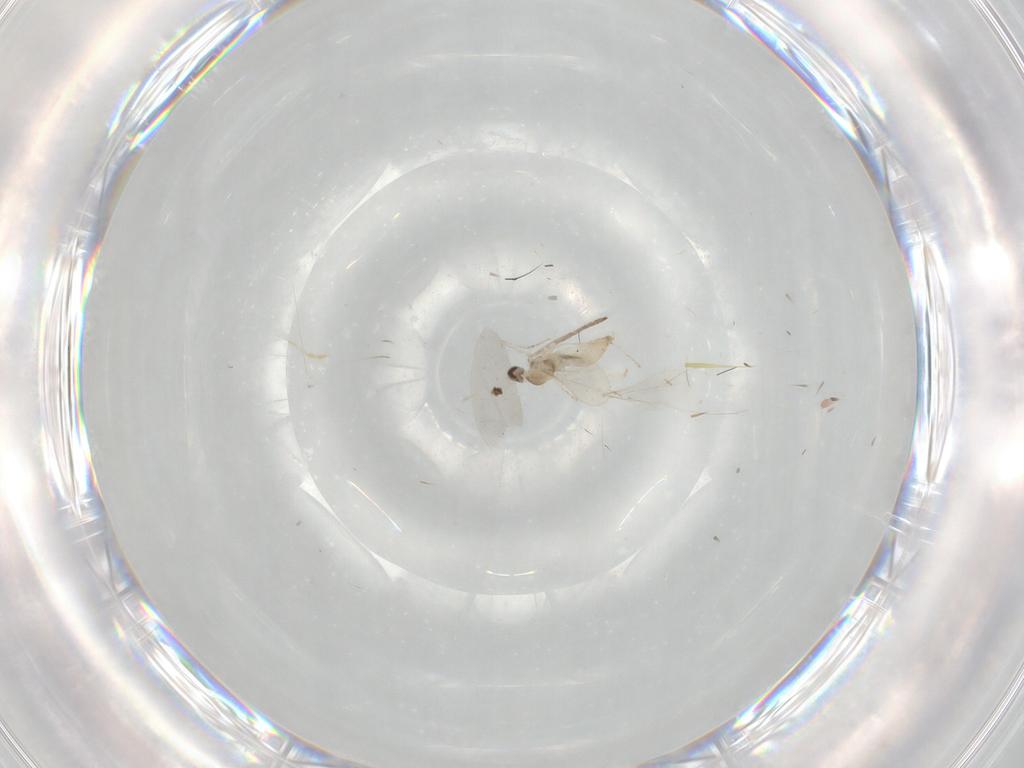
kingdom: Animalia
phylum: Arthropoda
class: Insecta
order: Diptera
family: Cecidomyiidae
